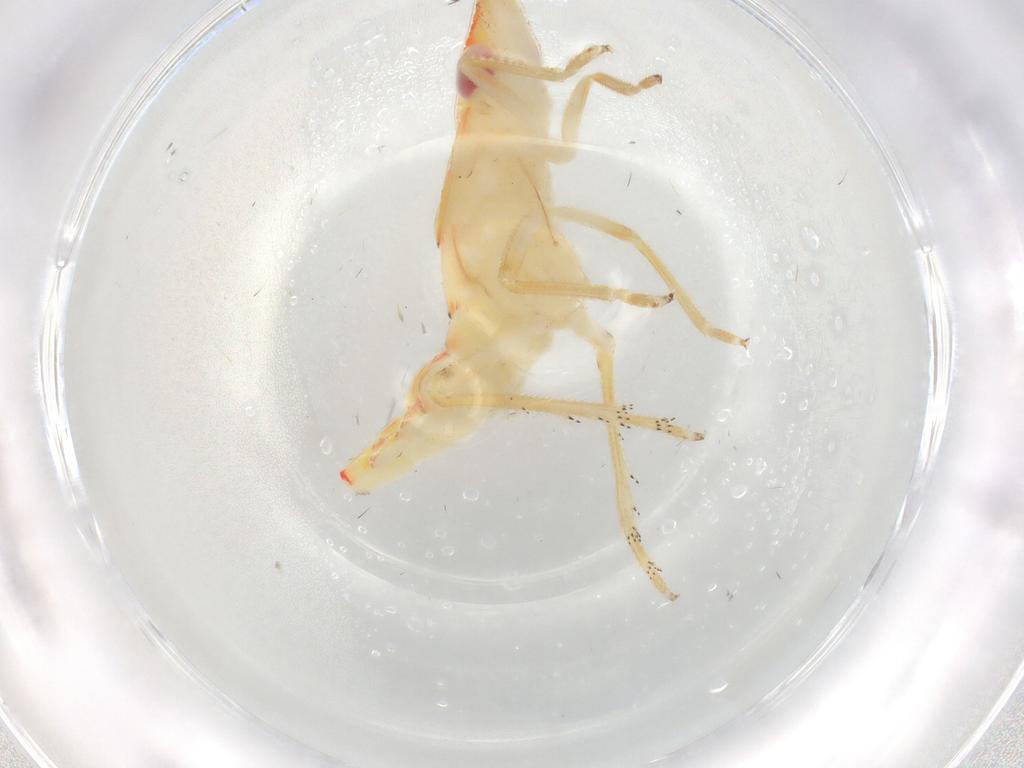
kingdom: Animalia
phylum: Arthropoda
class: Insecta
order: Hemiptera
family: Tropiduchidae
